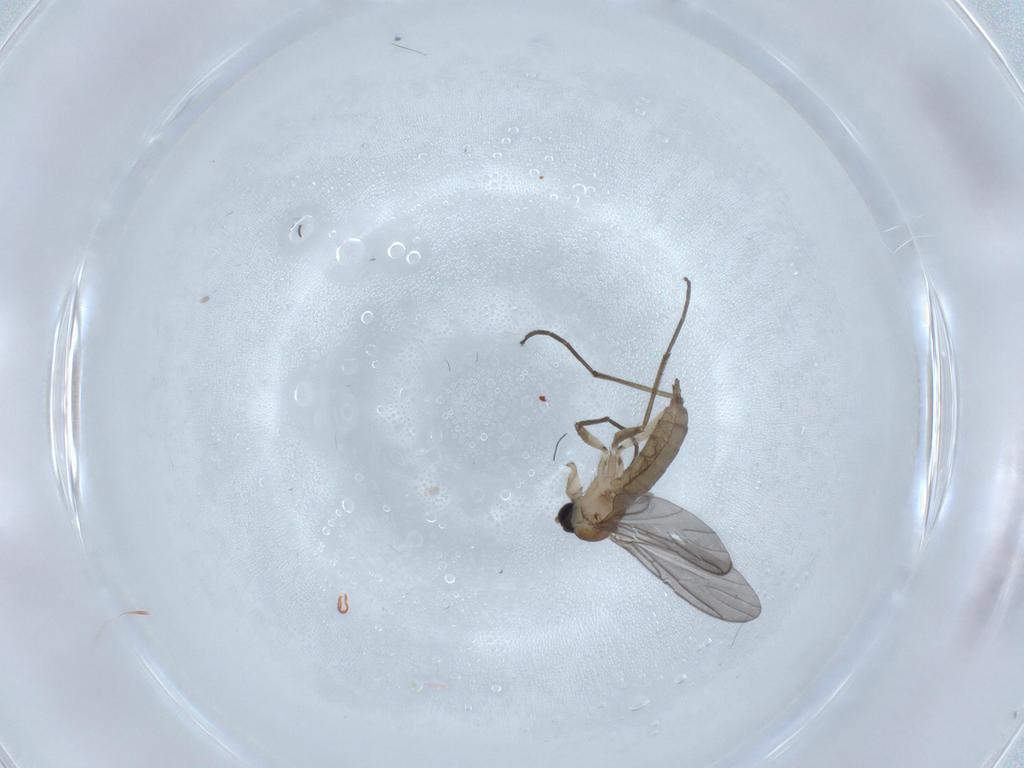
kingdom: Animalia
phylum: Arthropoda
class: Insecta
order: Diptera
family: Sciaridae
